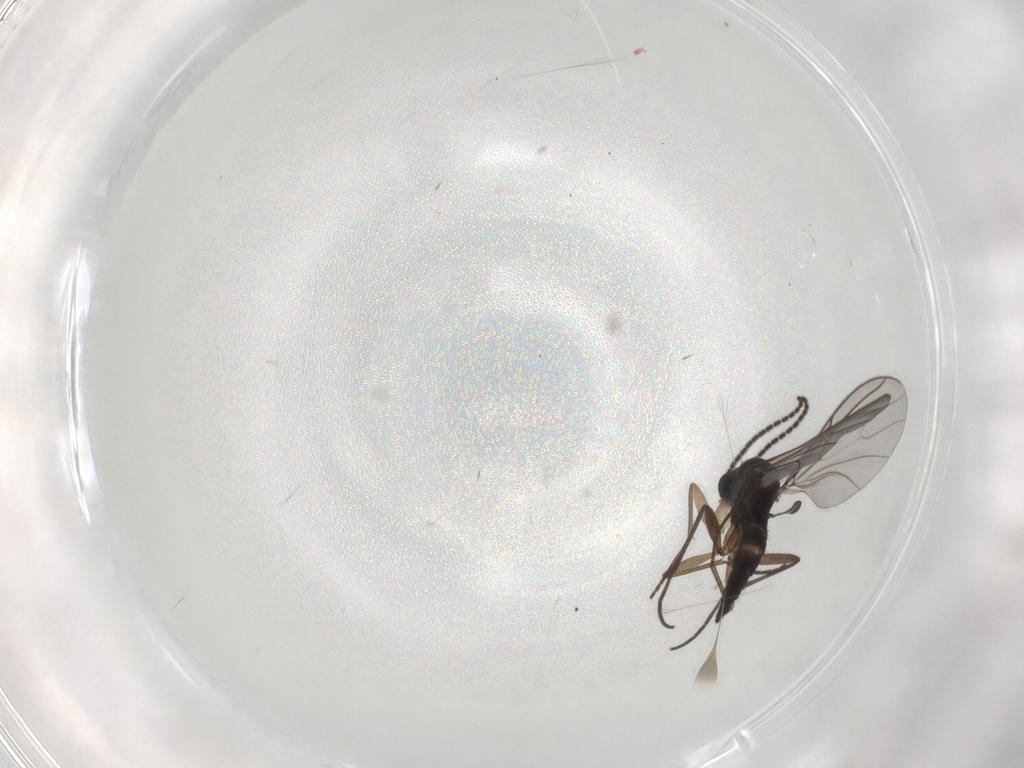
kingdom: Animalia
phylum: Arthropoda
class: Insecta
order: Diptera
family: Sciaridae
